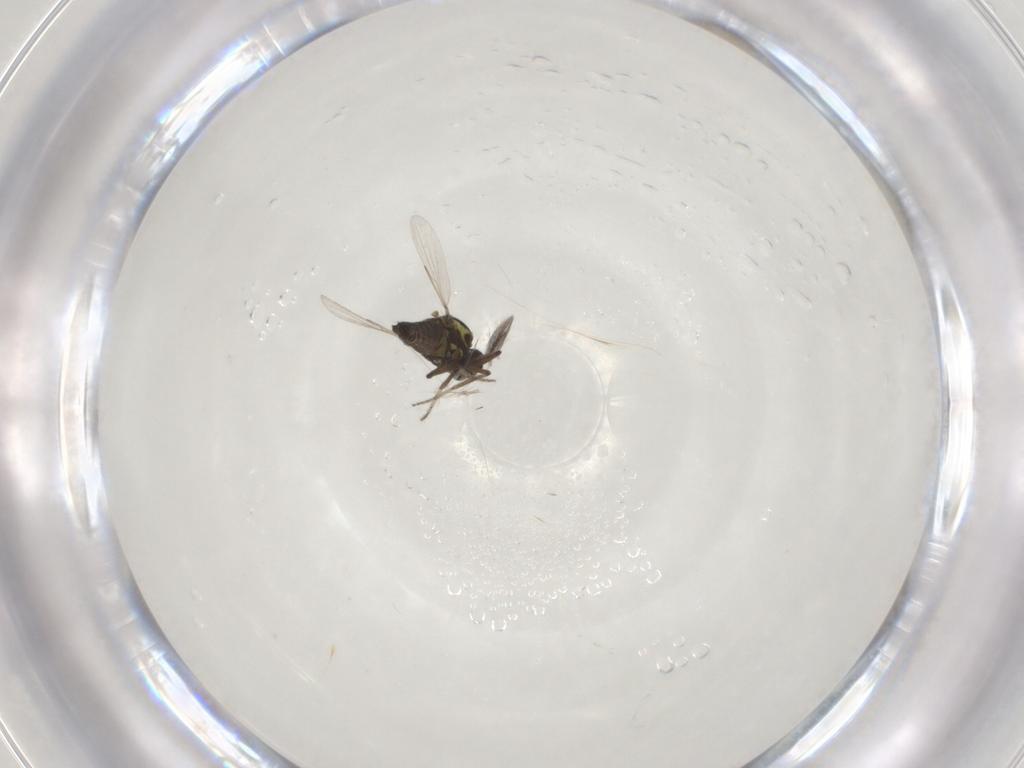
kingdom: Animalia
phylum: Arthropoda
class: Insecta
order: Diptera
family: Ceratopogonidae
